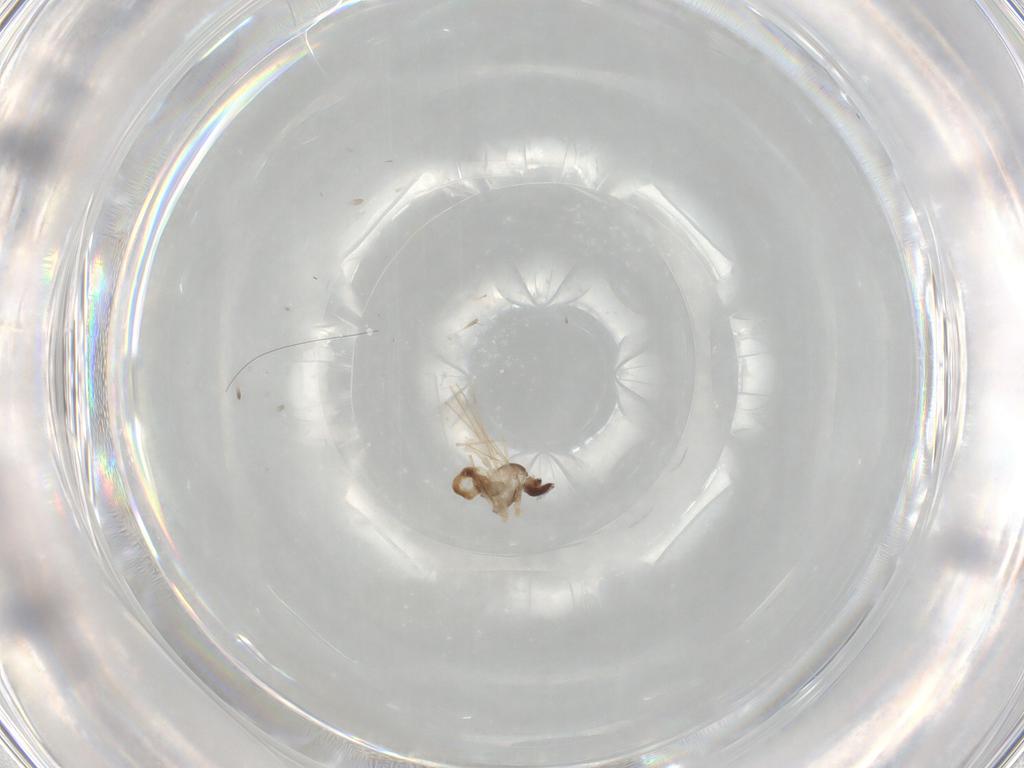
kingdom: Animalia
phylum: Arthropoda
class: Insecta
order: Diptera
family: Cecidomyiidae
